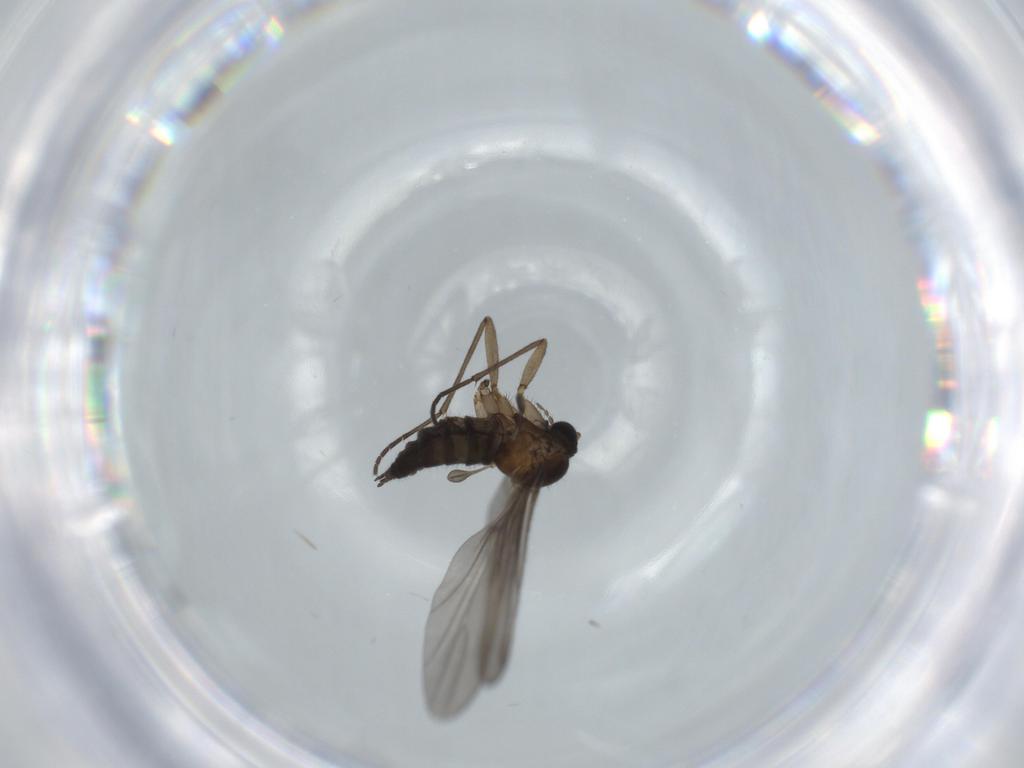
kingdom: Animalia
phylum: Arthropoda
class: Insecta
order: Diptera
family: Sciaridae
